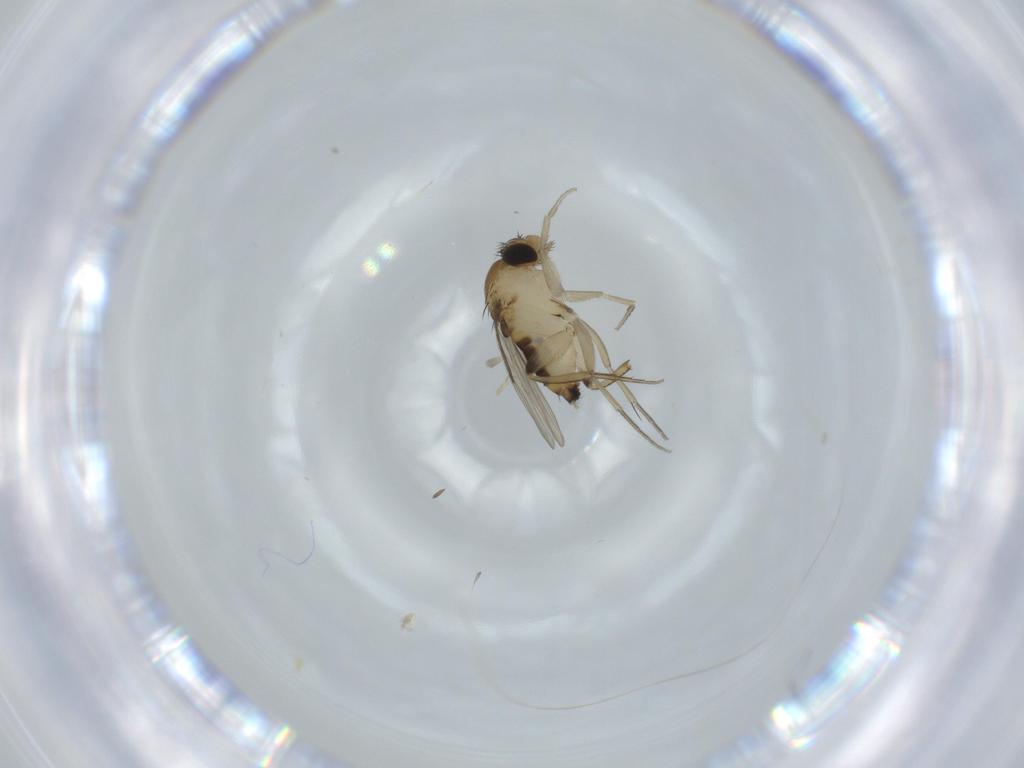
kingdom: Animalia
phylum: Arthropoda
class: Insecta
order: Diptera
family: Phoridae
